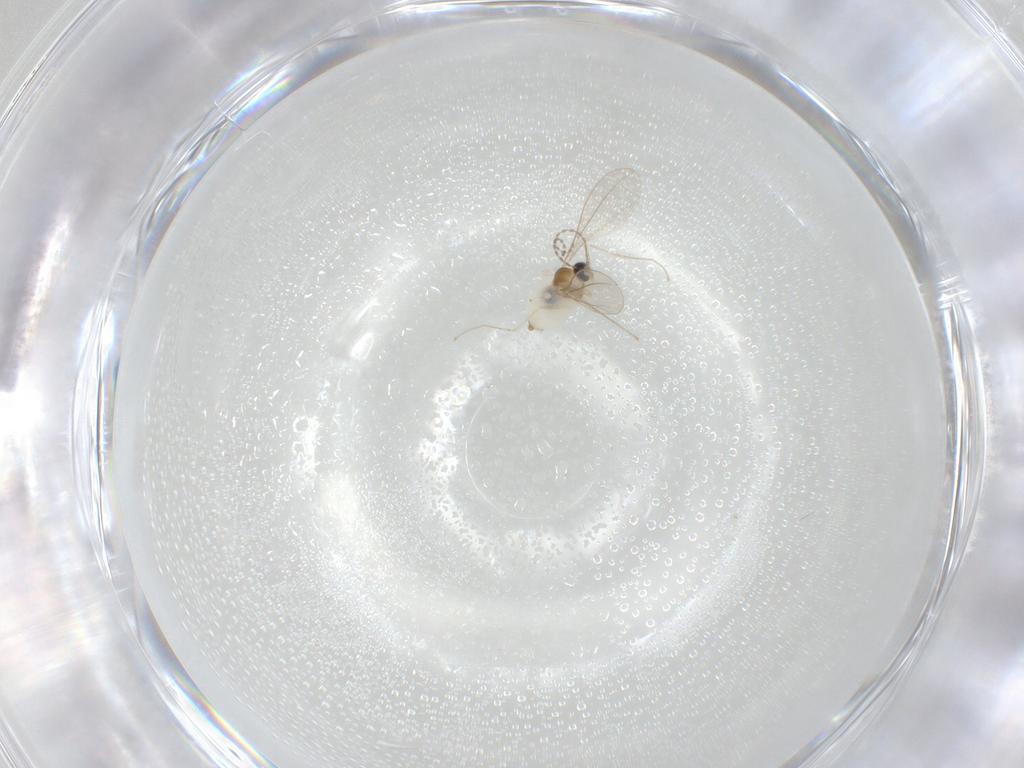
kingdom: Animalia
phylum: Arthropoda
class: Insecta
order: Diptera
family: Cecidomyiidae
